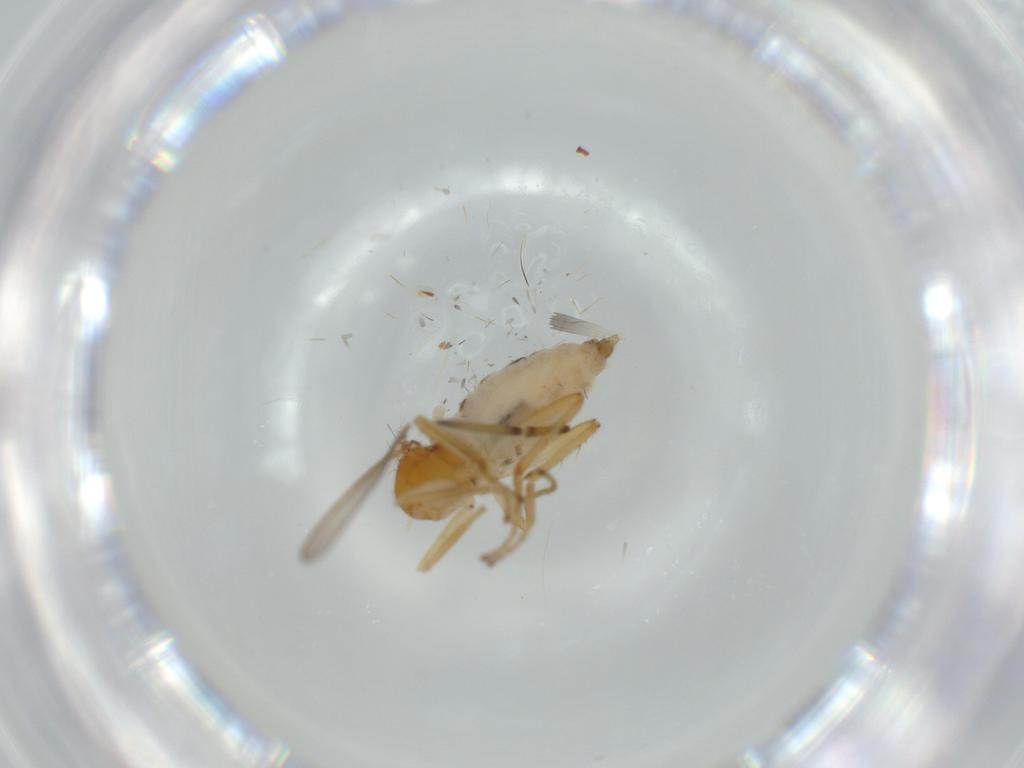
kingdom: Animalia
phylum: Arthropoda
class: Insecta
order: Diptera
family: Hybotidae
